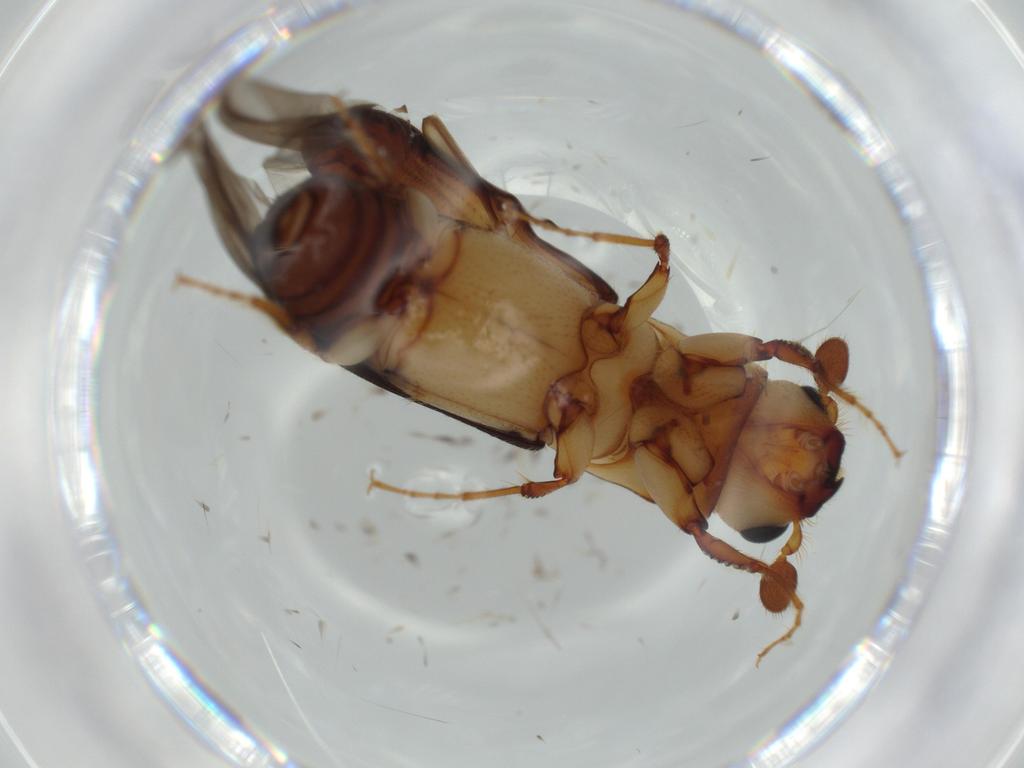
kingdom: Animalia
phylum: Arthropoda
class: Insecta
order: Coleoptera
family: Curculionidae
